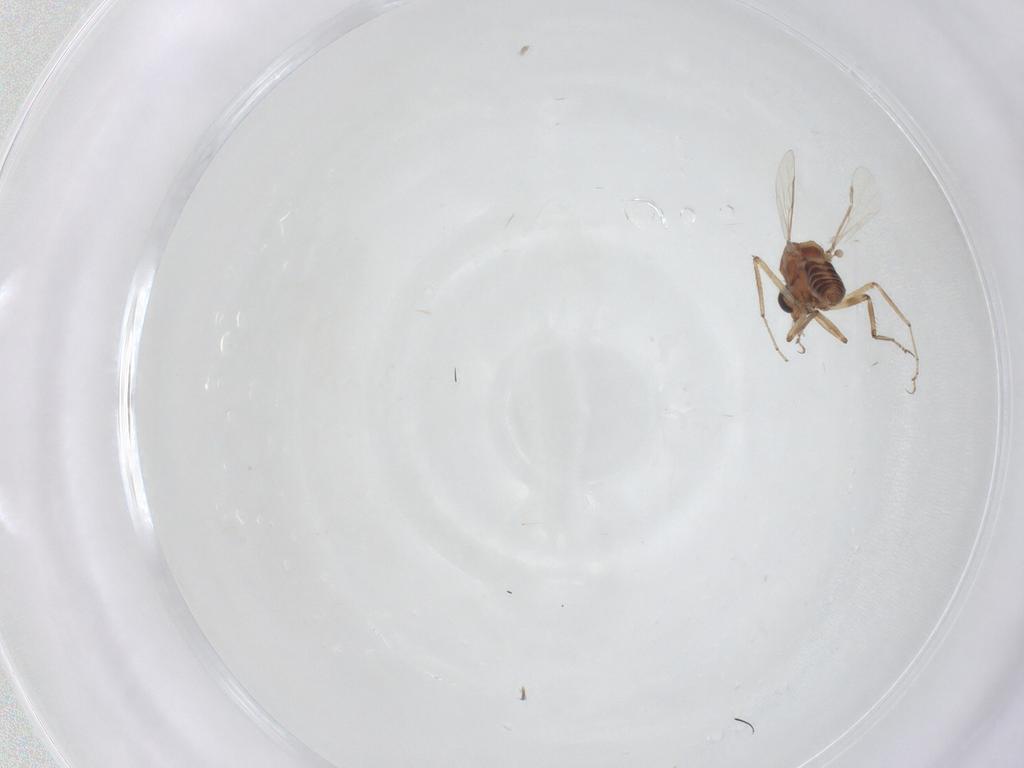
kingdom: Animalia
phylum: Arthropoda
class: Insecta
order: Diptera
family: Ceratopogonidae
